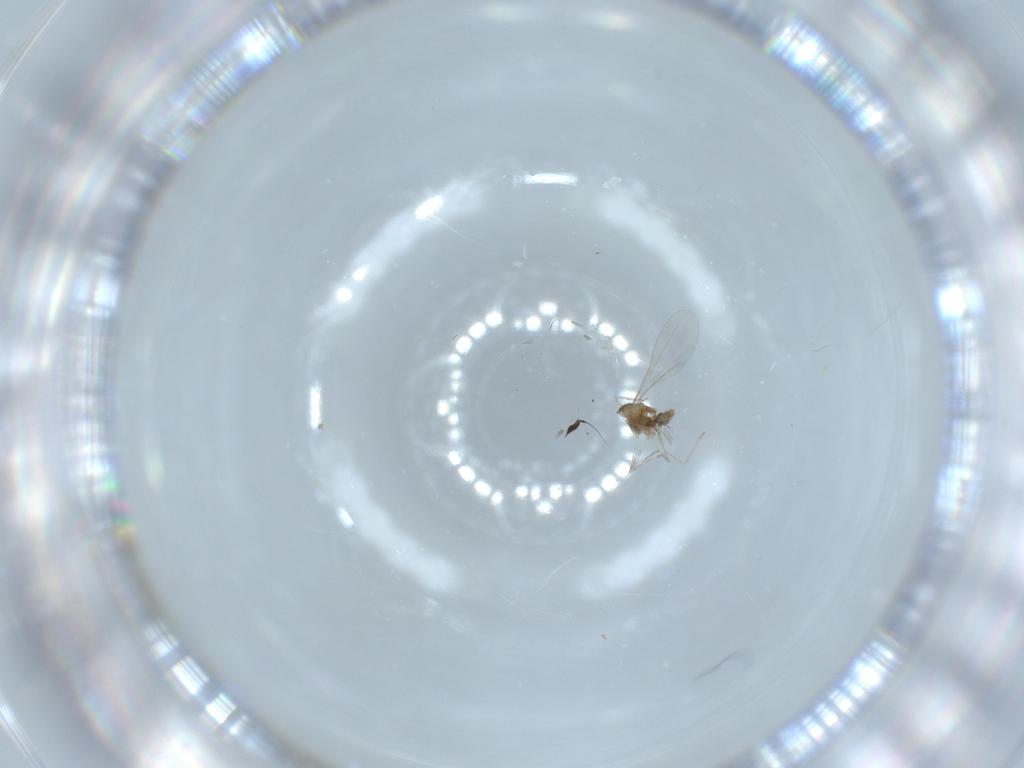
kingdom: Animalia
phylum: Arthropoda
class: Insecta
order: Diptera
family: Cecidomyiidae
